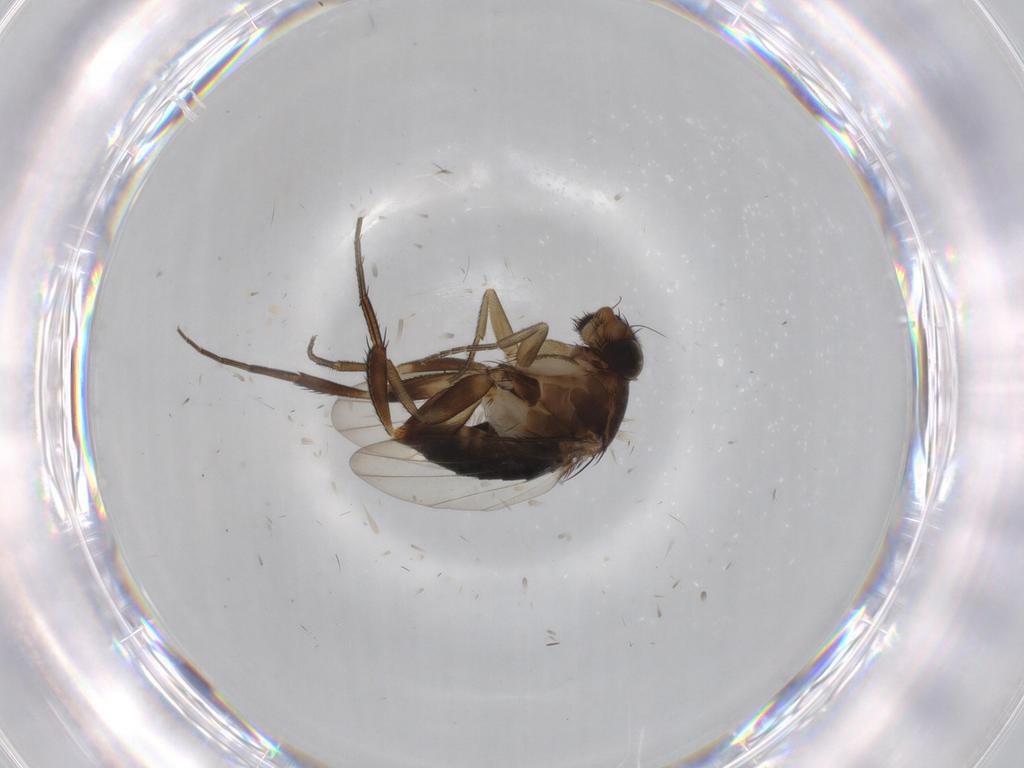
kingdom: Animalia
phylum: Arthropoda
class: Insecta
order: Diptera
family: Phoridae
